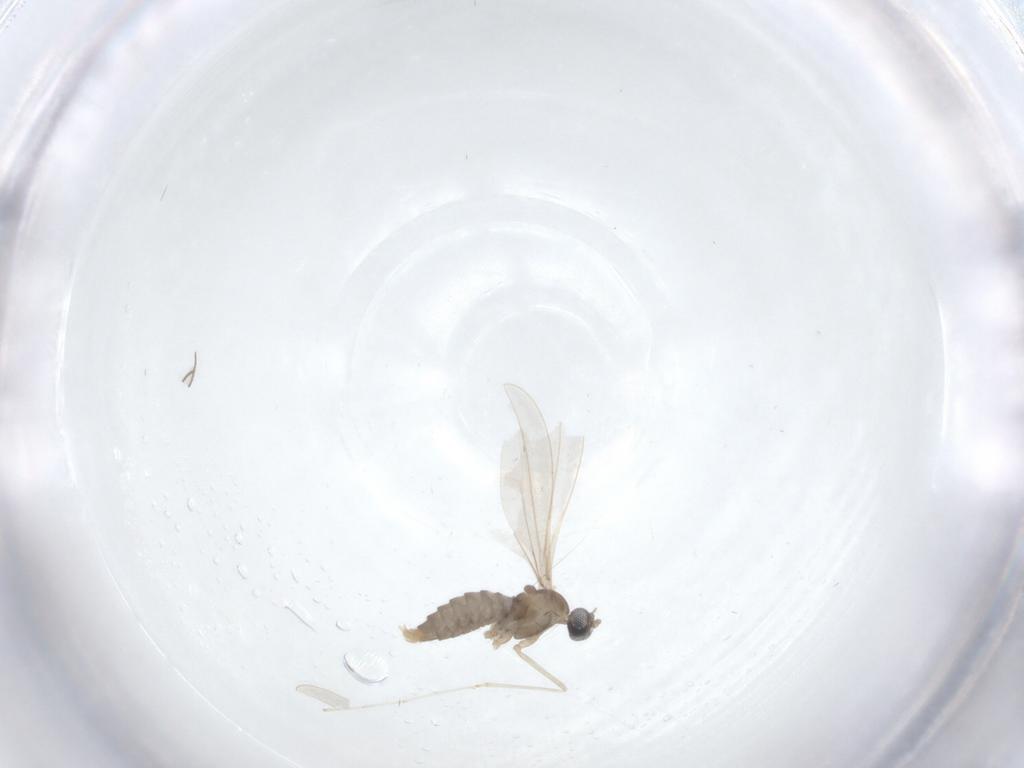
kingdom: Animalia
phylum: Arthropoda
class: Insecta
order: Diptera
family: Cecidomyiidae
